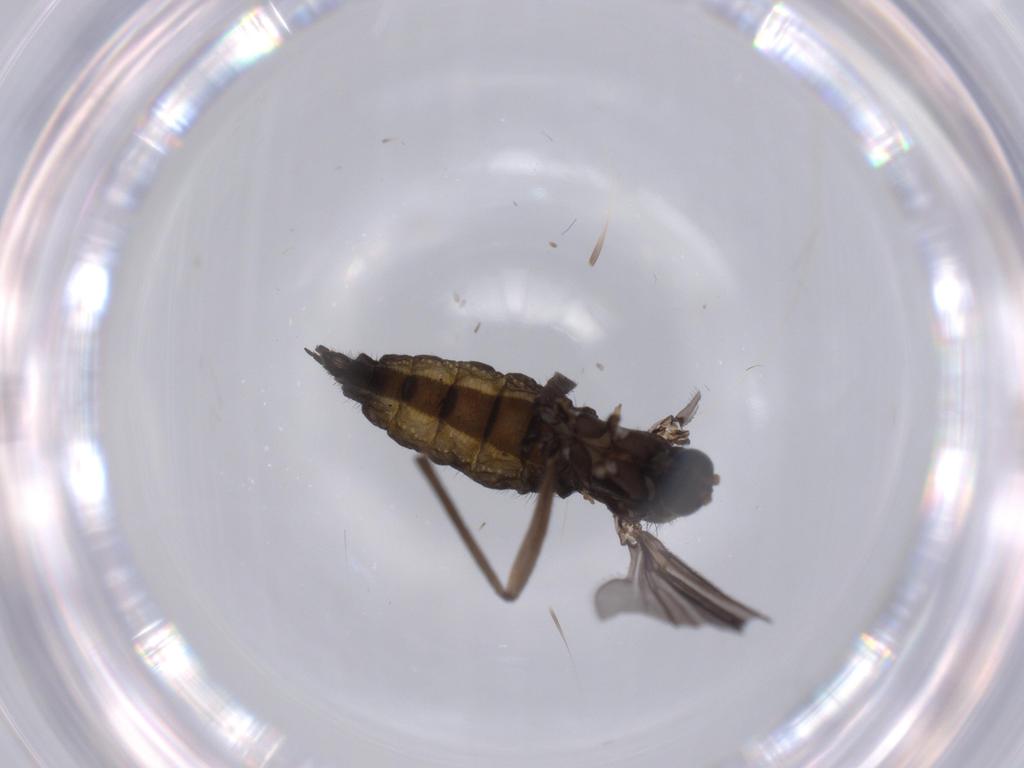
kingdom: Animalia
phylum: Arthropoda
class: Insecta
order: Diptera
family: Sciaridae
